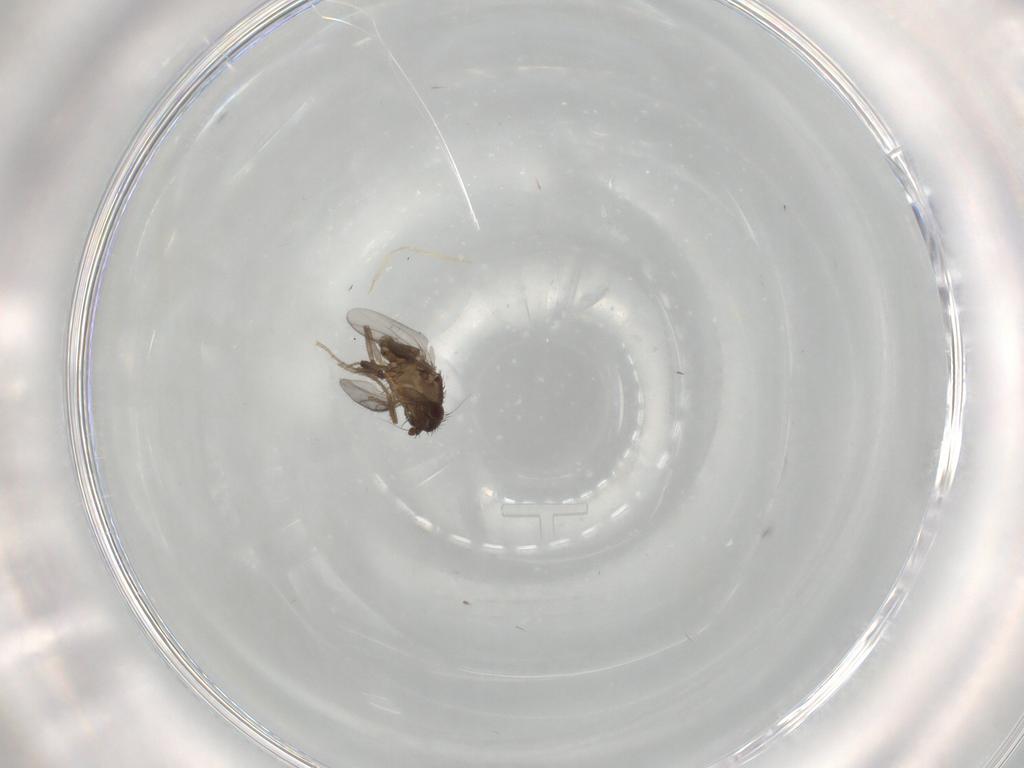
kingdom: Animalia
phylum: Arthropoda
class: Insecta
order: Diptera
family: Sphaeroceridae
